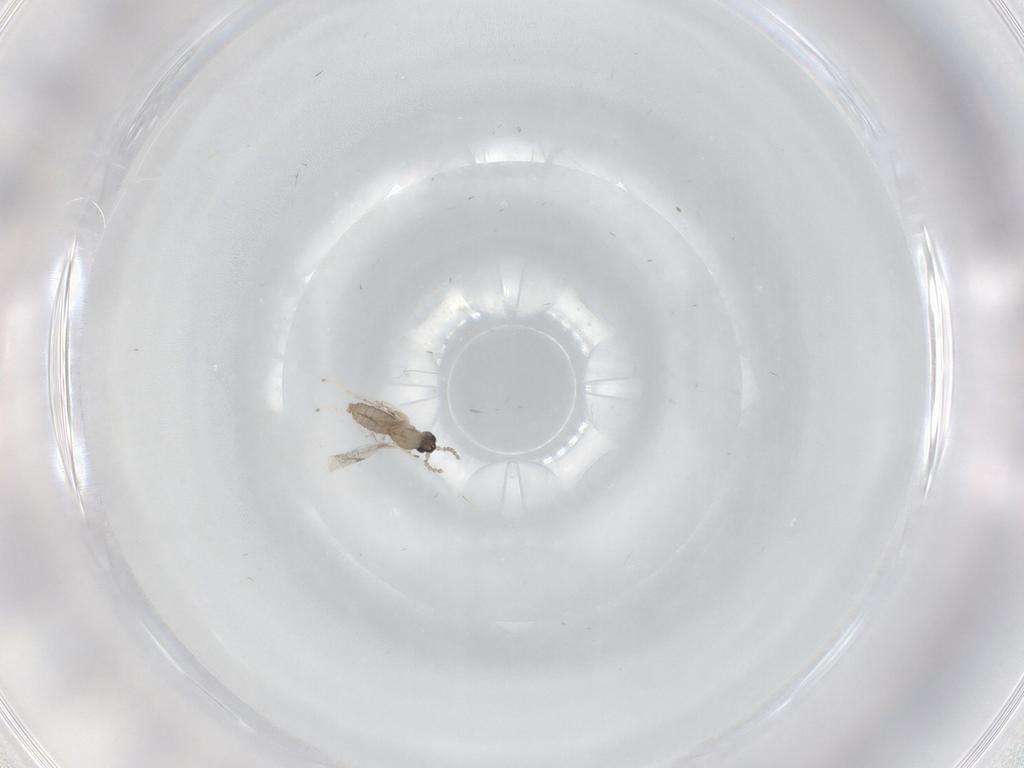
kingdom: Animalia
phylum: Arthropoda
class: Insecta
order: Diptera
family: Cecidomyiidae
